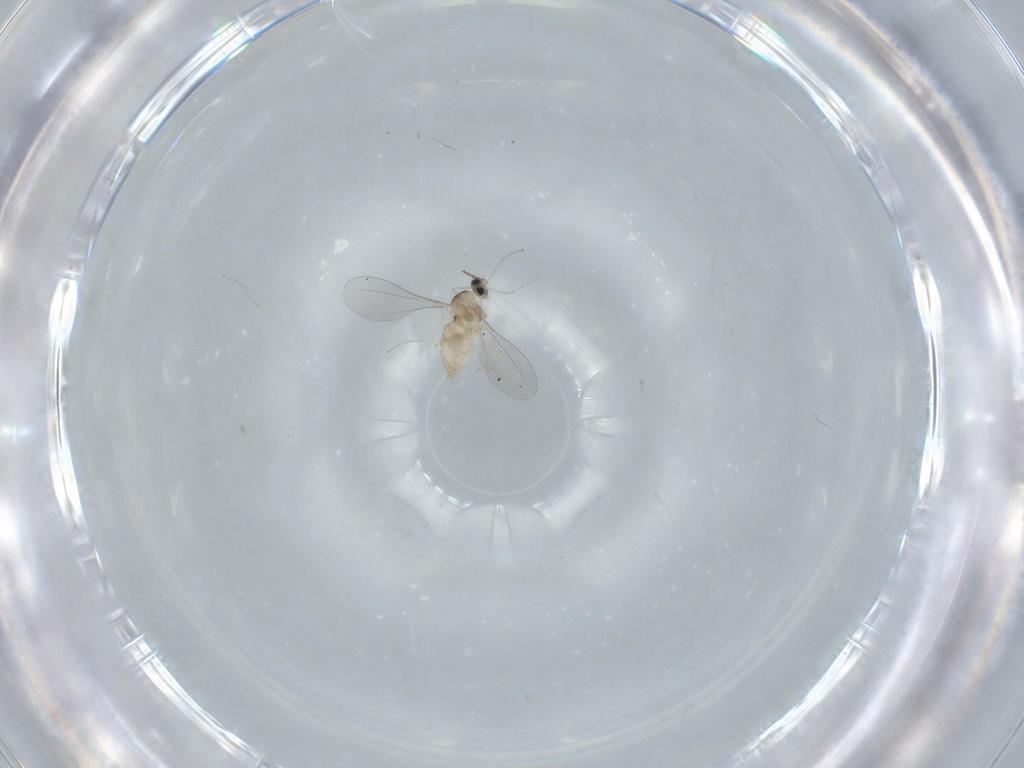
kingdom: Animalia
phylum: Arthropoda
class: Insecta
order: Diptera
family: Cecidomyiidae
